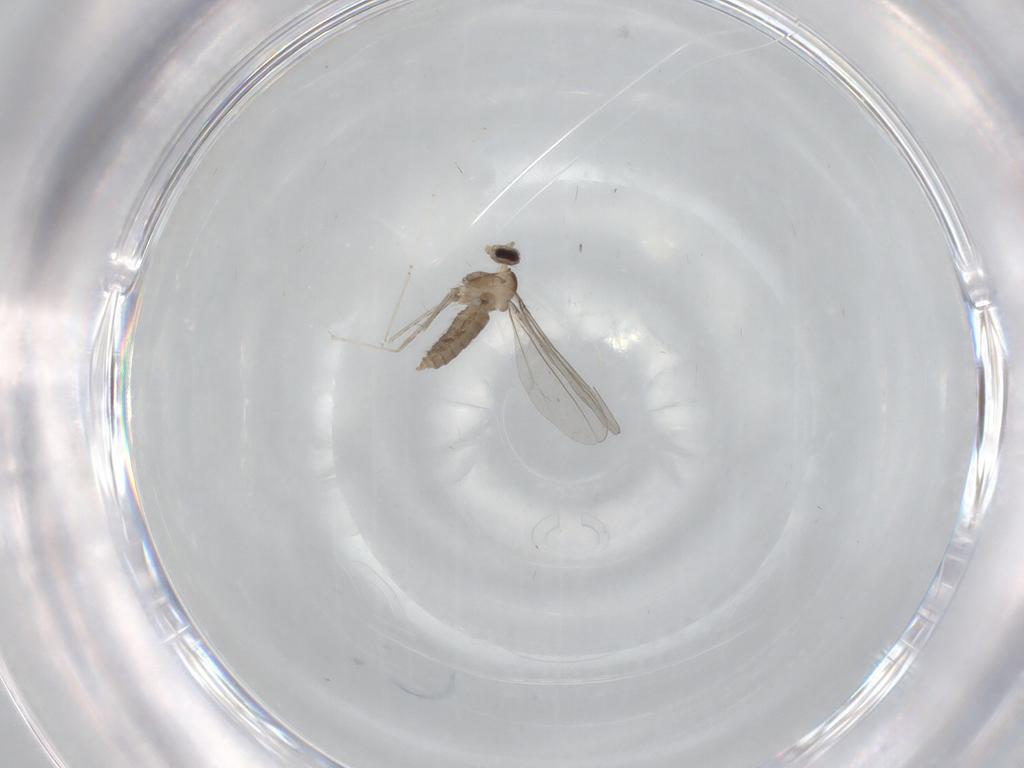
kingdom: Animalia
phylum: Arthropoda
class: Insecta
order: Diptera
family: Cecidomyiidae
